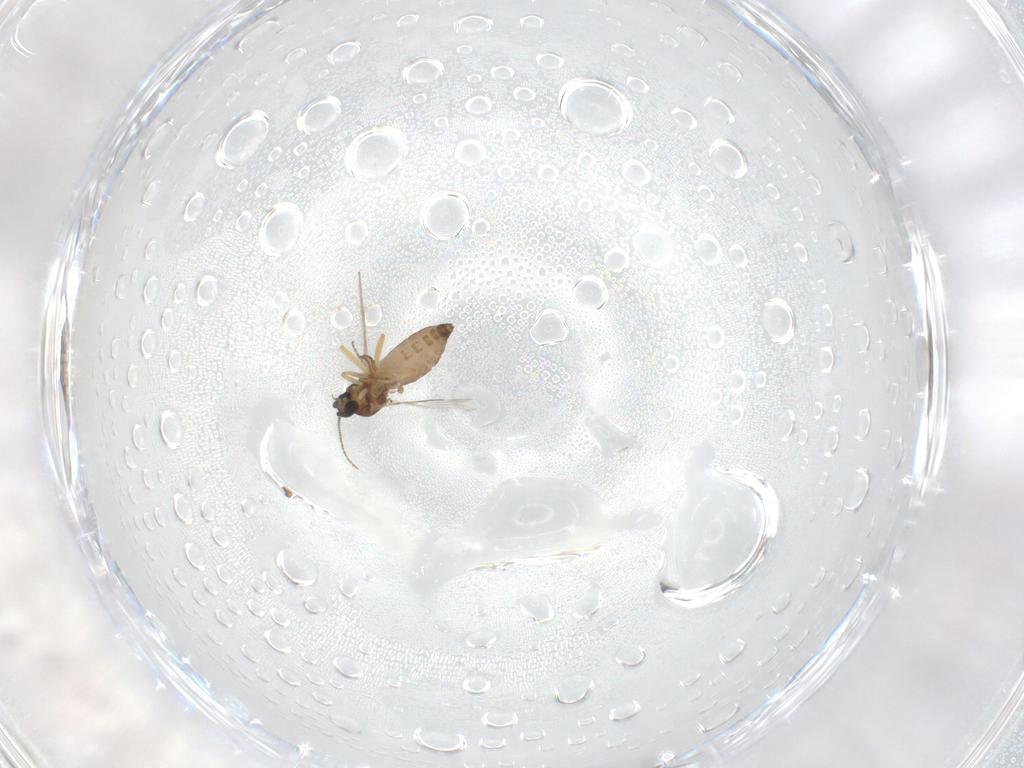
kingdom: Animalia
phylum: Arthropoda
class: Insecta
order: Diptera
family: Ceratopogonidae
